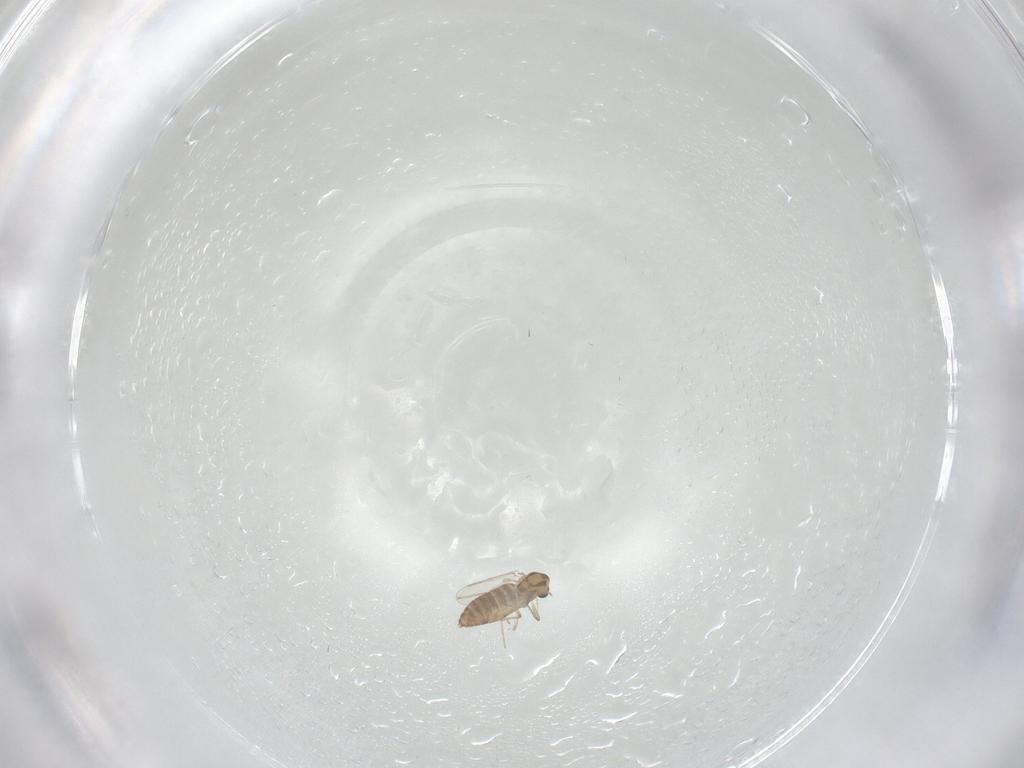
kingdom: Animalia
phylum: Arthropoda
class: Insecta
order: Diptera
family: Chironomidae
